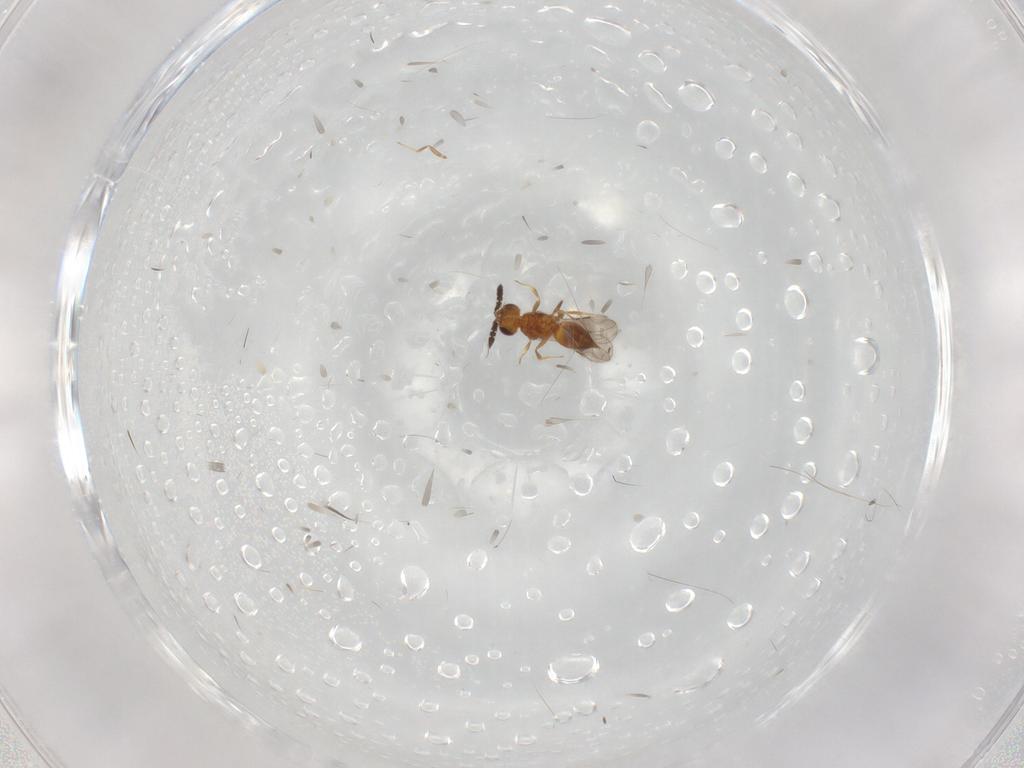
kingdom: Animalia
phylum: Arthropoda
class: Insecta
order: Hymenoptera
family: Ceraphronidae
